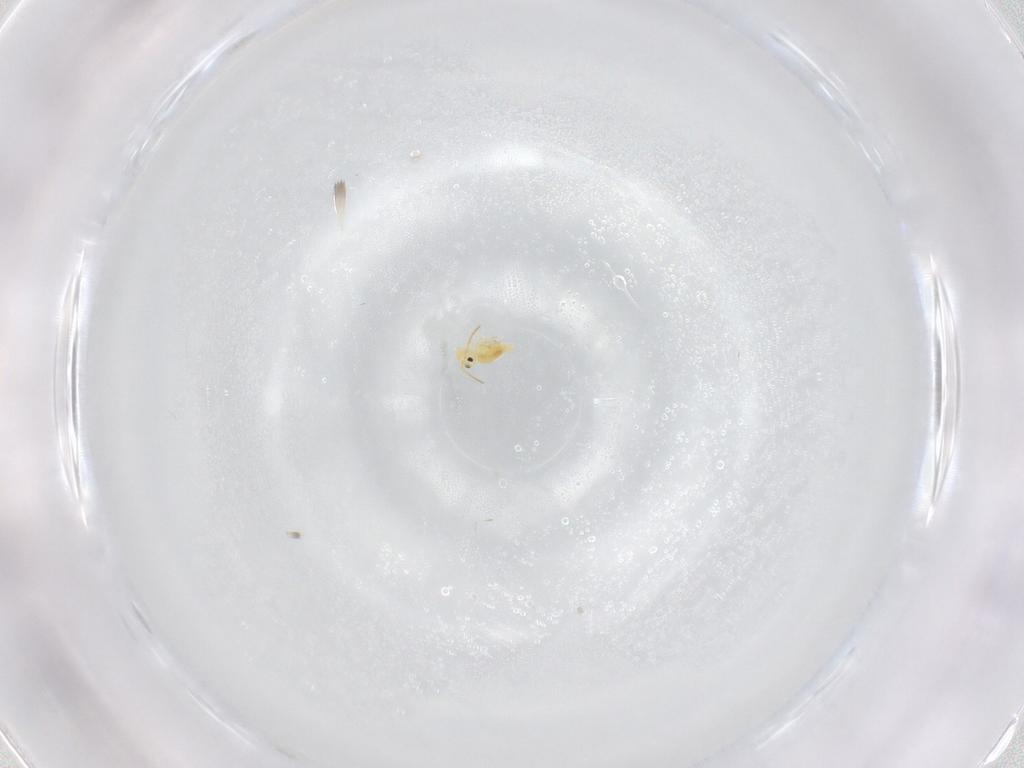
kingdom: Animalia
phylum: Arthropoda
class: Collembola
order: Symphypleona
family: Bourletiellidae
